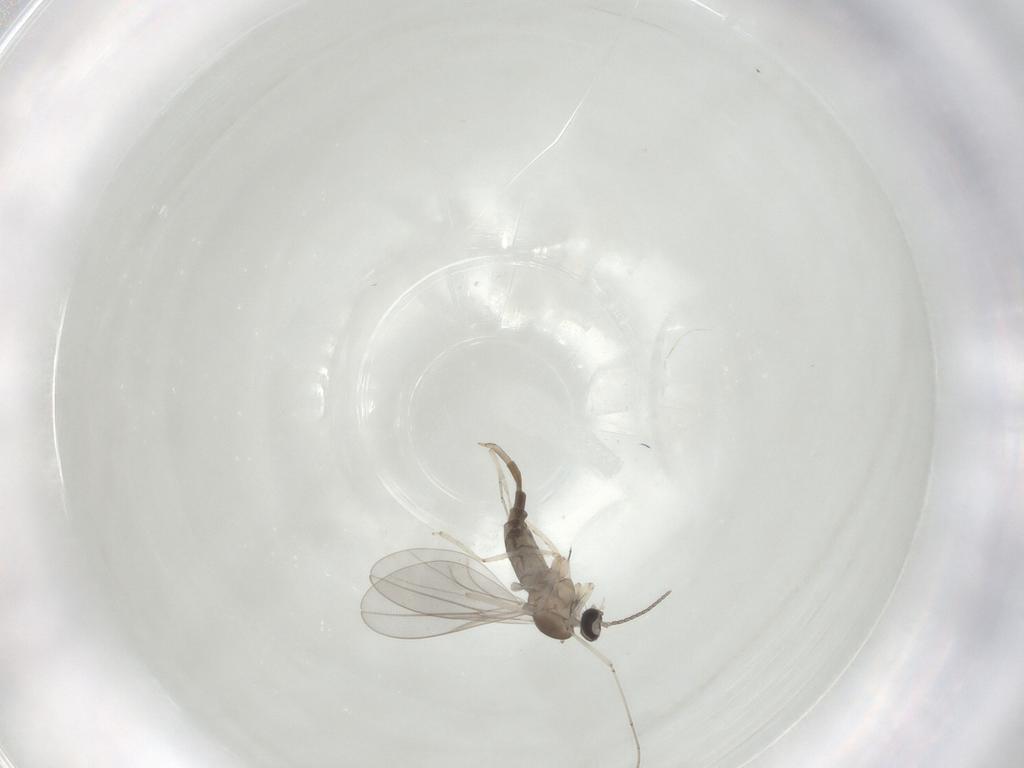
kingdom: Animalia
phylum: Arthropoda
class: Insecta
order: Diptera
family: Cecidomyiidae
